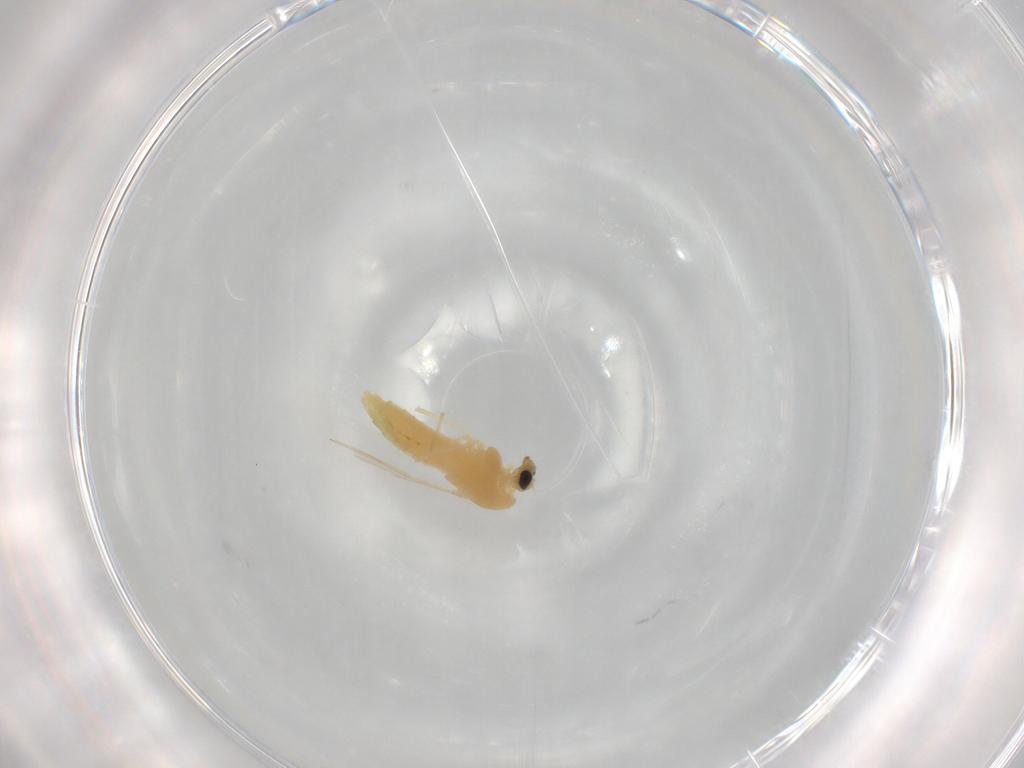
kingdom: Animalia
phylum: Arthropoda
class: Insecta
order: Diptera
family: Chironomidae
